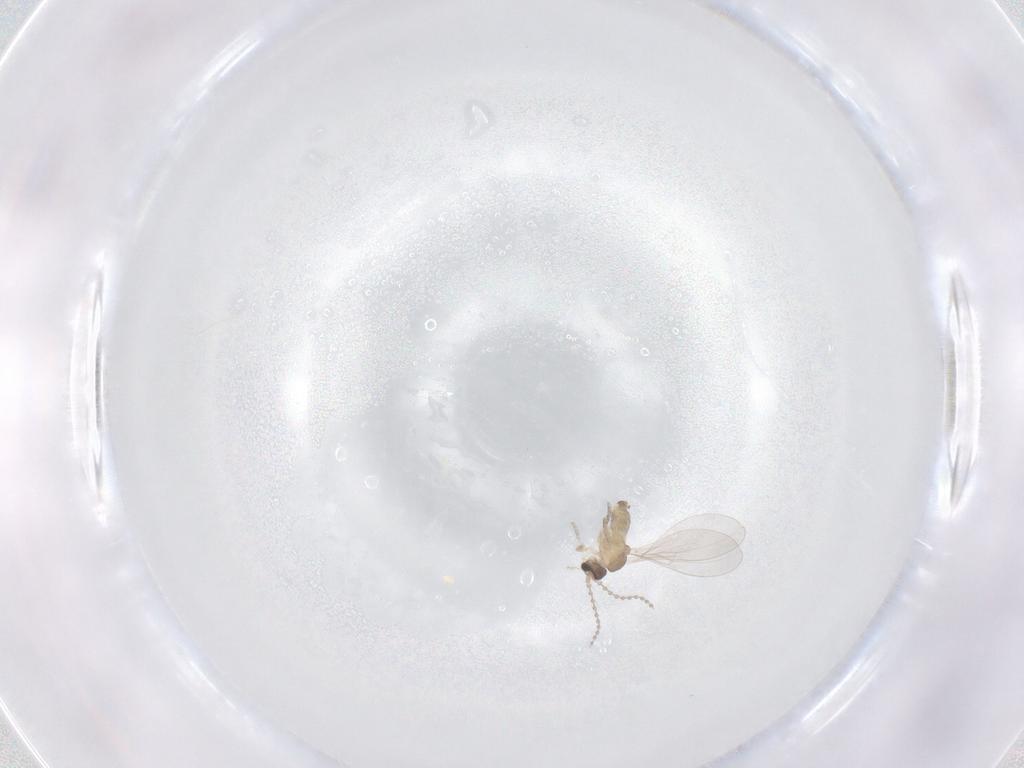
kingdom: Animalia
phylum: Arthropoda
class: Insecta
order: Diptera
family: Cecidomyiidae
